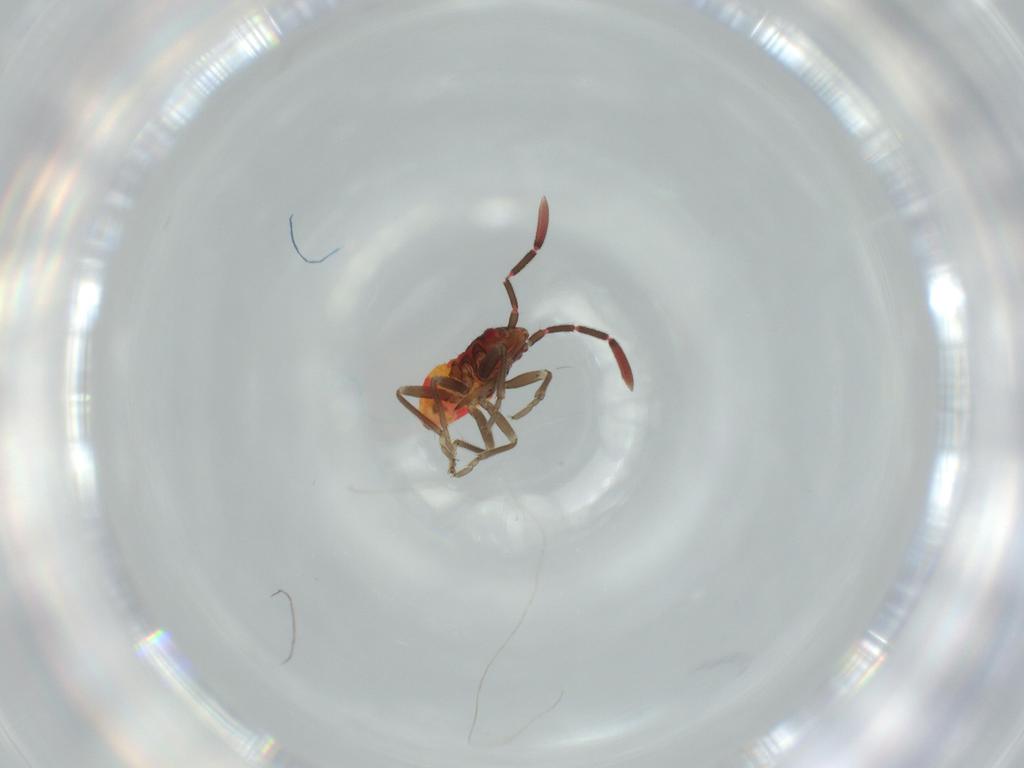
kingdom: Animalia
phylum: Arthropoda
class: Insecta
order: Hemiptera
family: Rhyparochromidae
